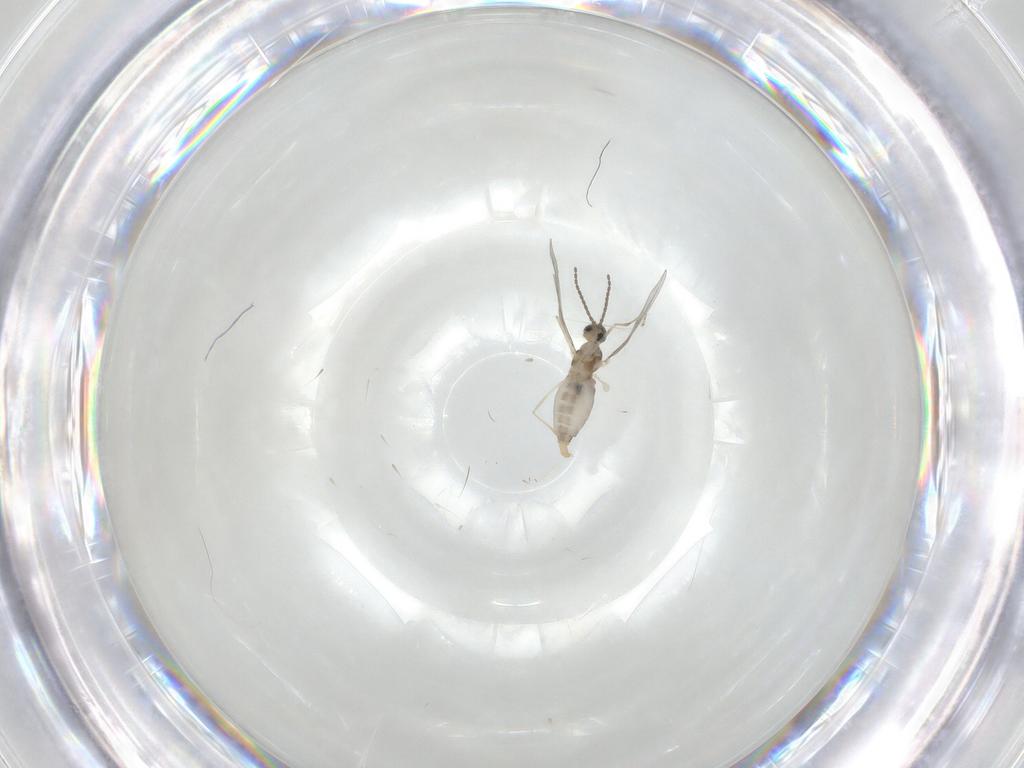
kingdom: Animalia
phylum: Arthropoda
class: Insecta
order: Diptera
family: Cecidomyiidae
